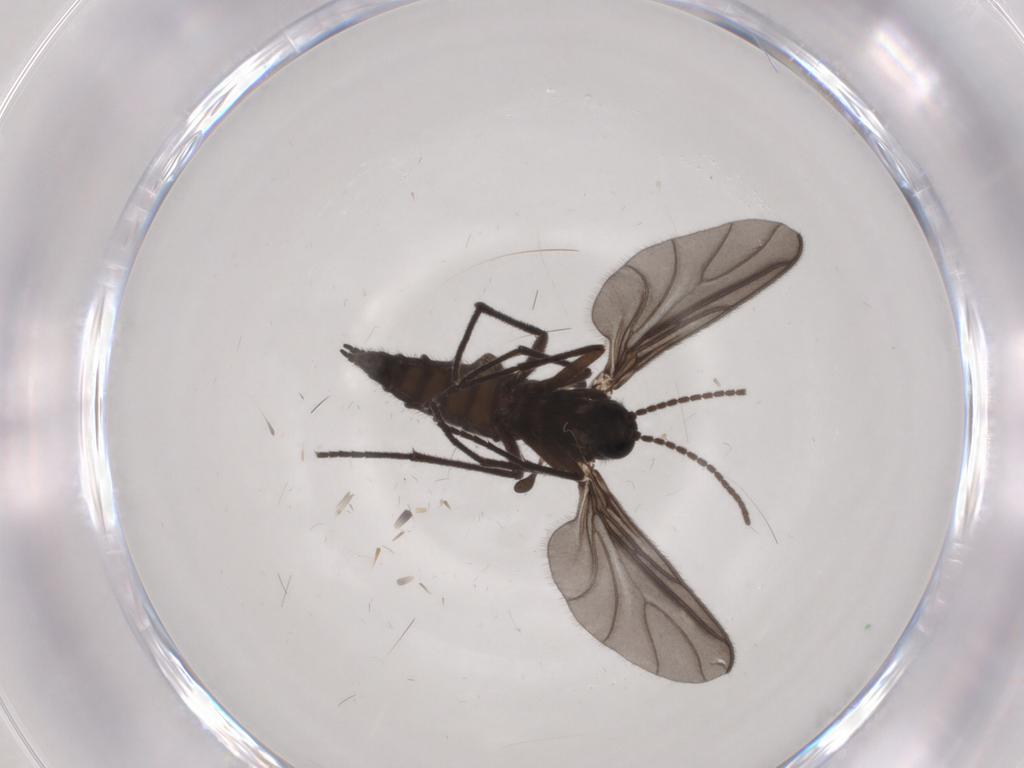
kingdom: Animalia
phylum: Arthropoda
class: Insecta
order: Diptera
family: Sciaridae
